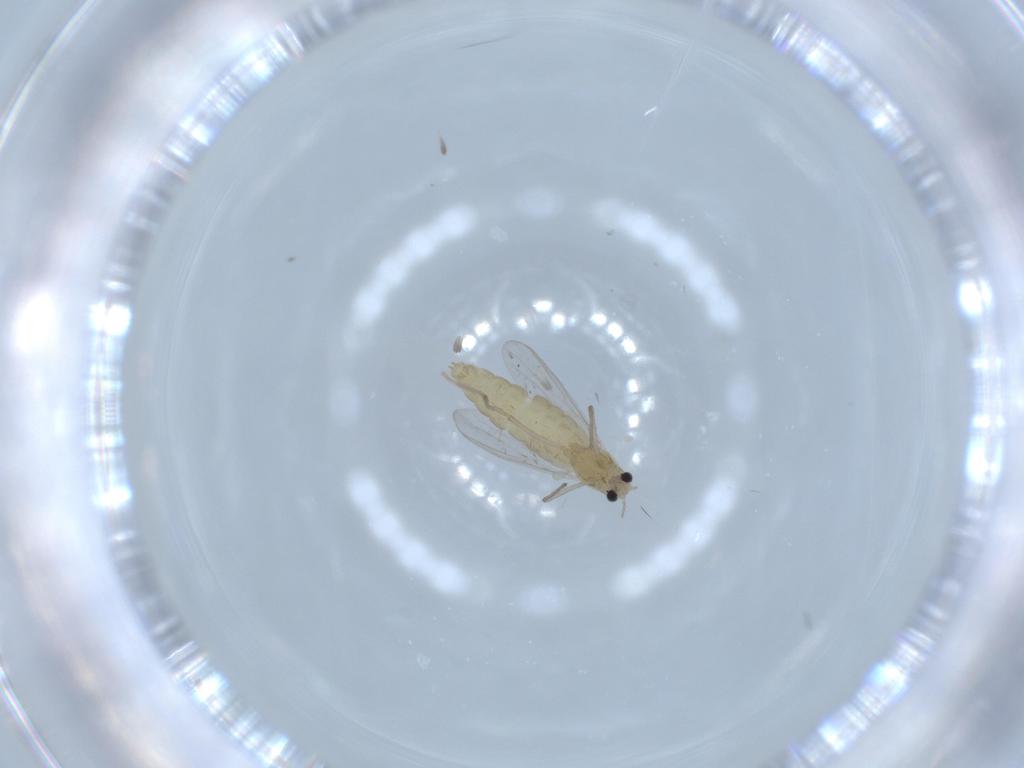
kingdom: Animalia
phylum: Arthropoda
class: Insecta
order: Diptera
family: Chironomidae
